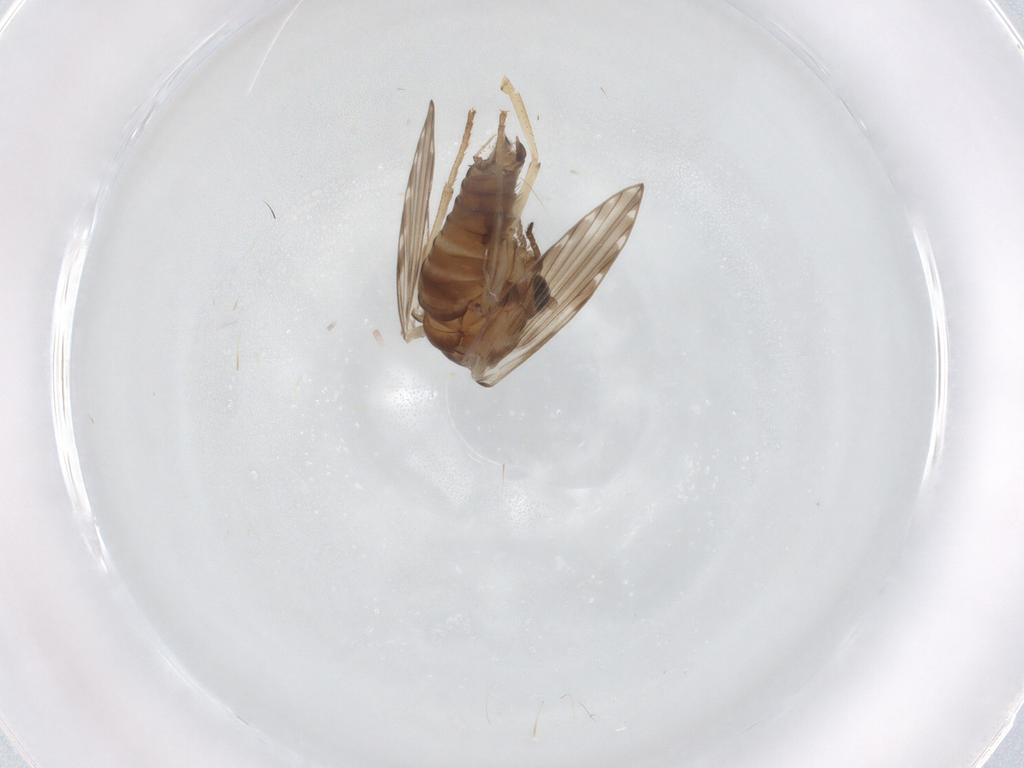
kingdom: Animalia
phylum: Arthropoda
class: Insecta
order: Diptera
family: Psychodidae
